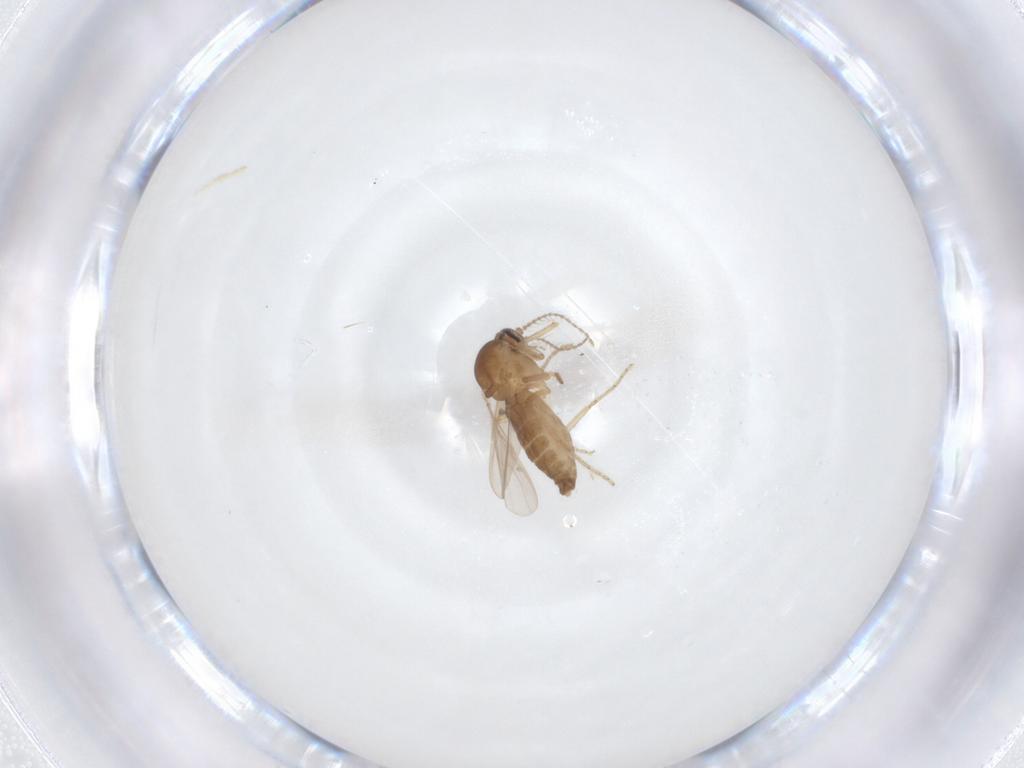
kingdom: Animalia
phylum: Arthropoda
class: Insecta
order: Diptera
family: Ceratopogonidae
